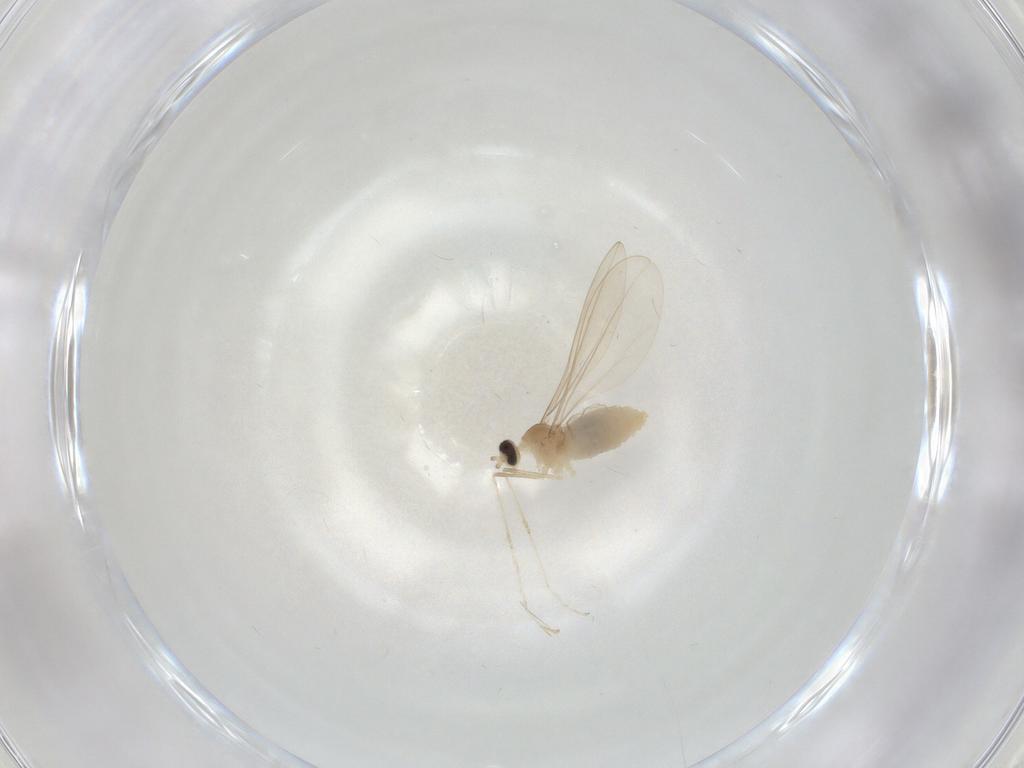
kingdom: Animalia
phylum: Arthropoda
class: Insecta
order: Diptera
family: Cecidomyiidae
